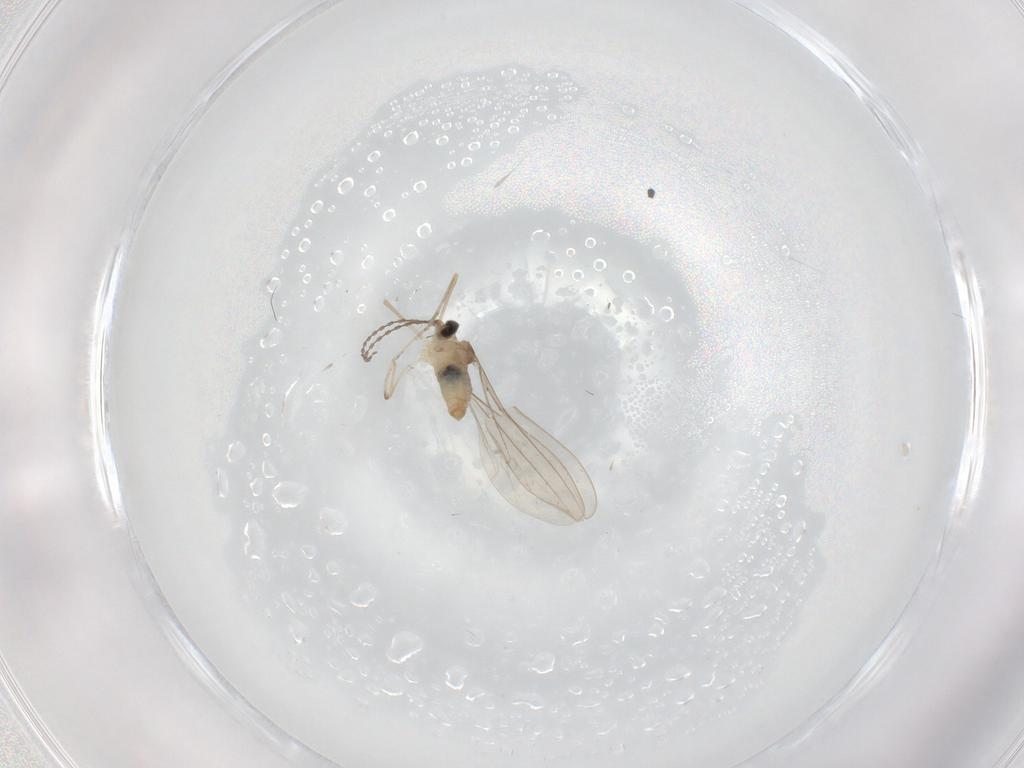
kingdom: Animalia
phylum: Arthropoda
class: Insecta
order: Diptera
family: Cecidomyiidae
